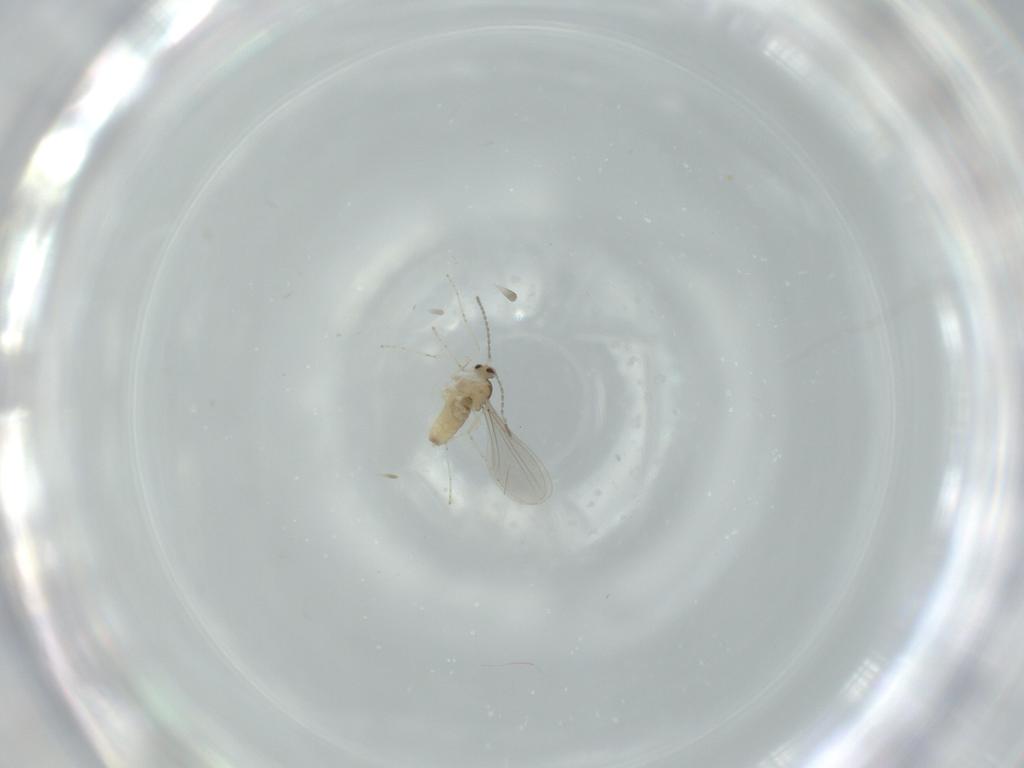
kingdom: Animalia
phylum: Arthropoda
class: Insecta
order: Diptera
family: Cecidomyiidae
